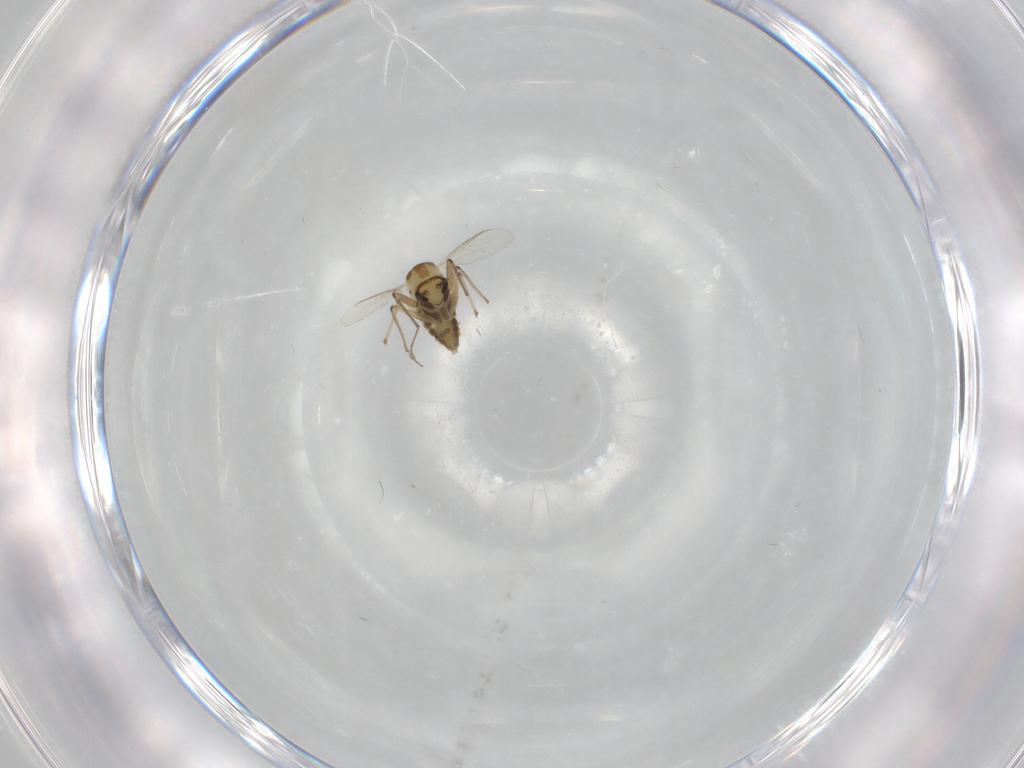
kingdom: Animalia
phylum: Arthropoda
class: Insecta
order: Diptera
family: Chironomidae
